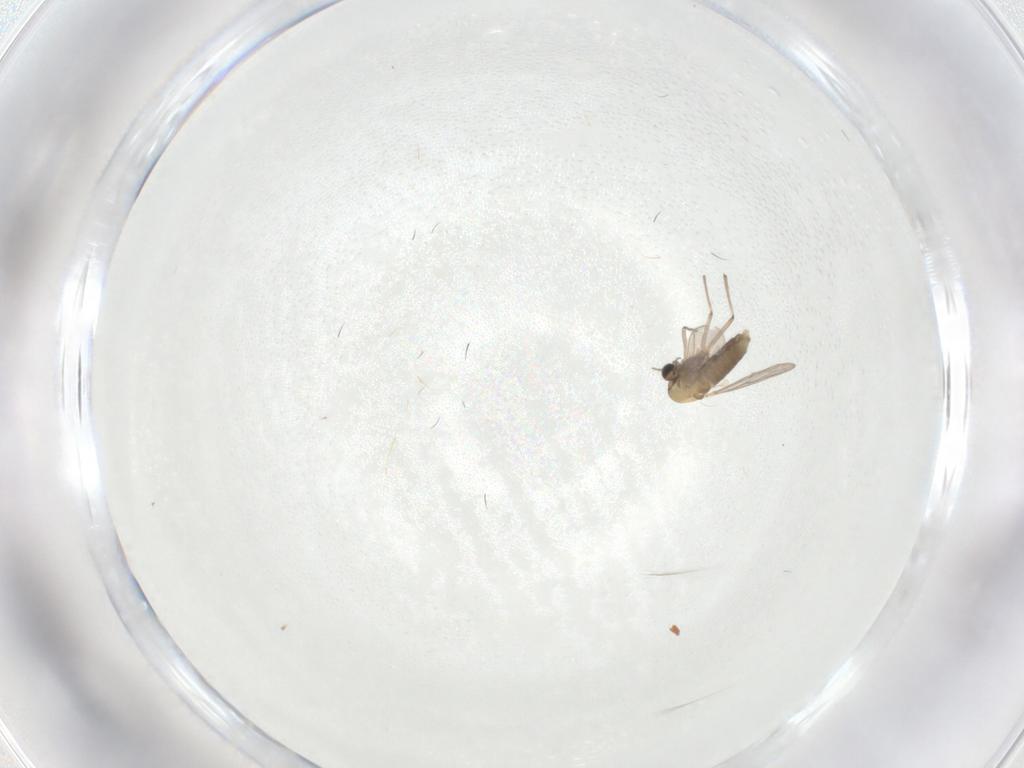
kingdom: Animalia
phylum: Arthropoda
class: Insecta
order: Diptera
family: Ceratopogonidae
